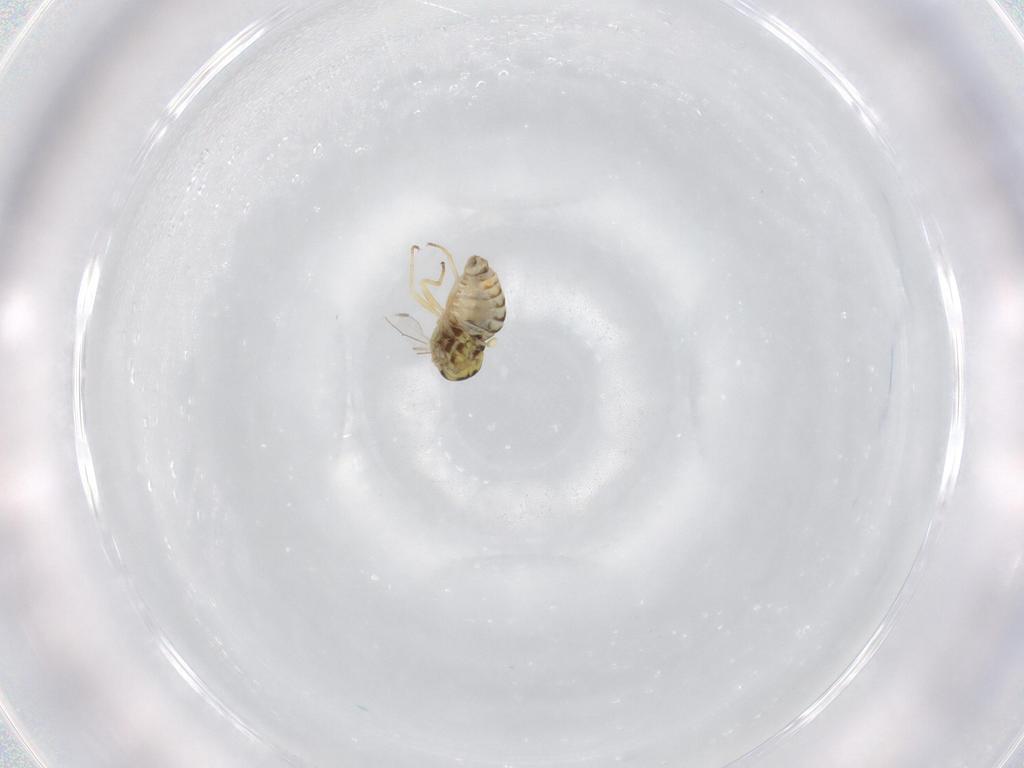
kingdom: Animalia
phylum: Arthropoda
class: Insecta
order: Diptera
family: Bombyliidae
